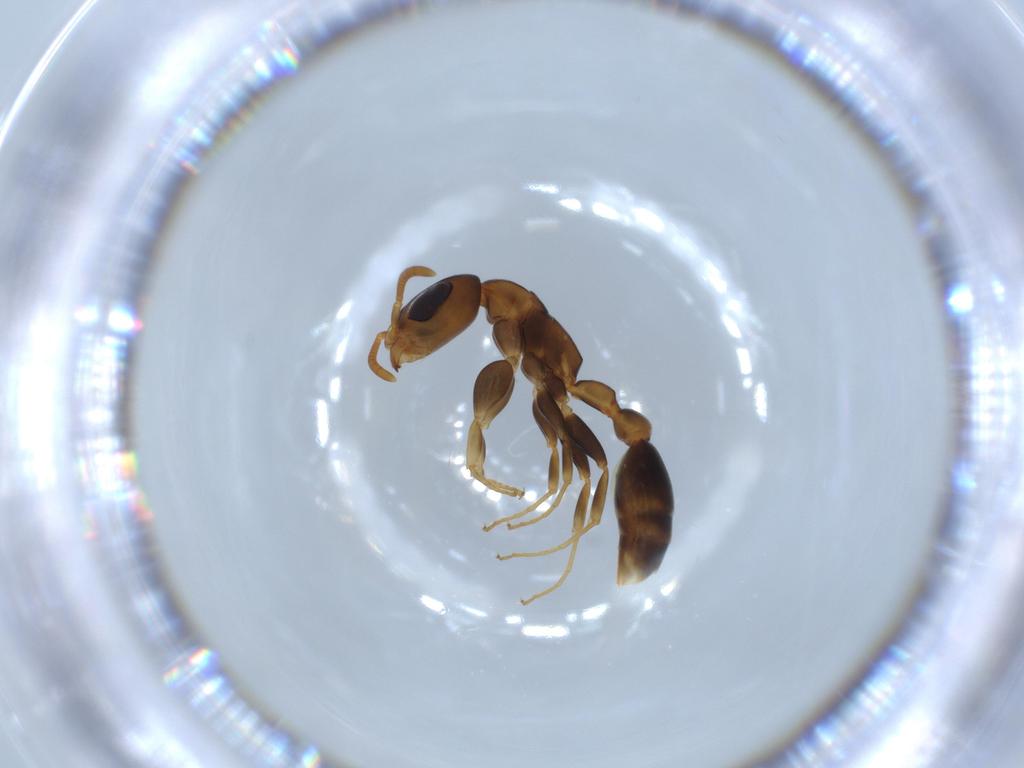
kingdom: Animalia
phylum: Arthropoda
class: Insecta
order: Hymenoptera
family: Formicidae
